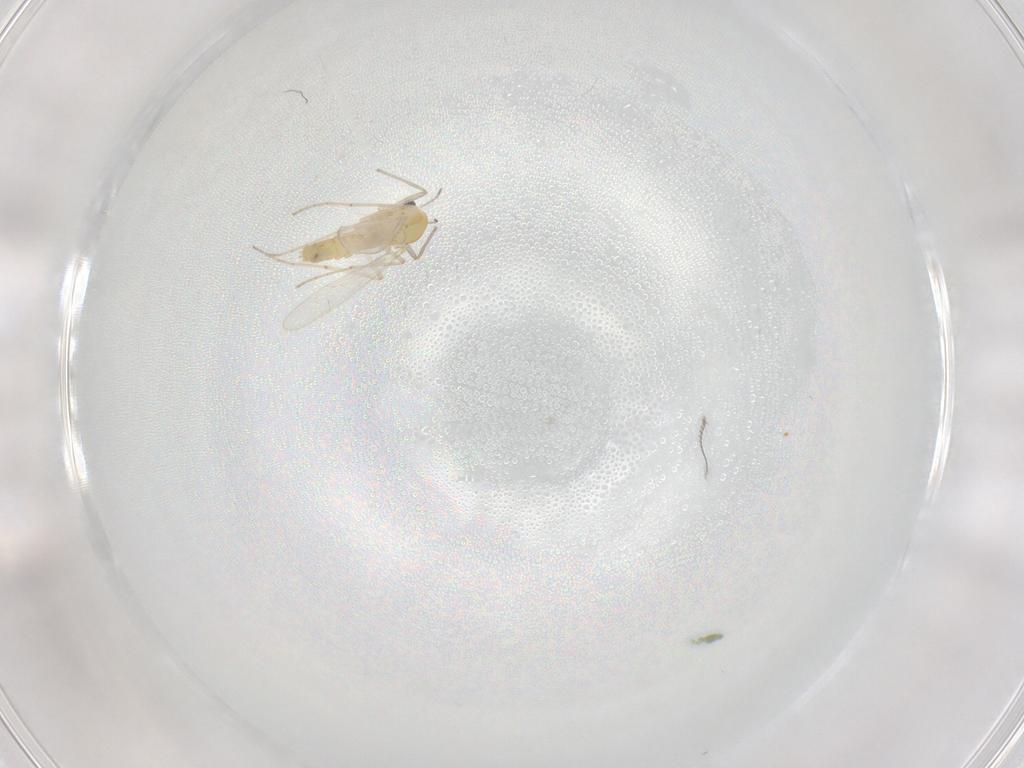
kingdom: Animalia
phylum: Arthropoda
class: Insecta
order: Diptera
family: Chironomidae
